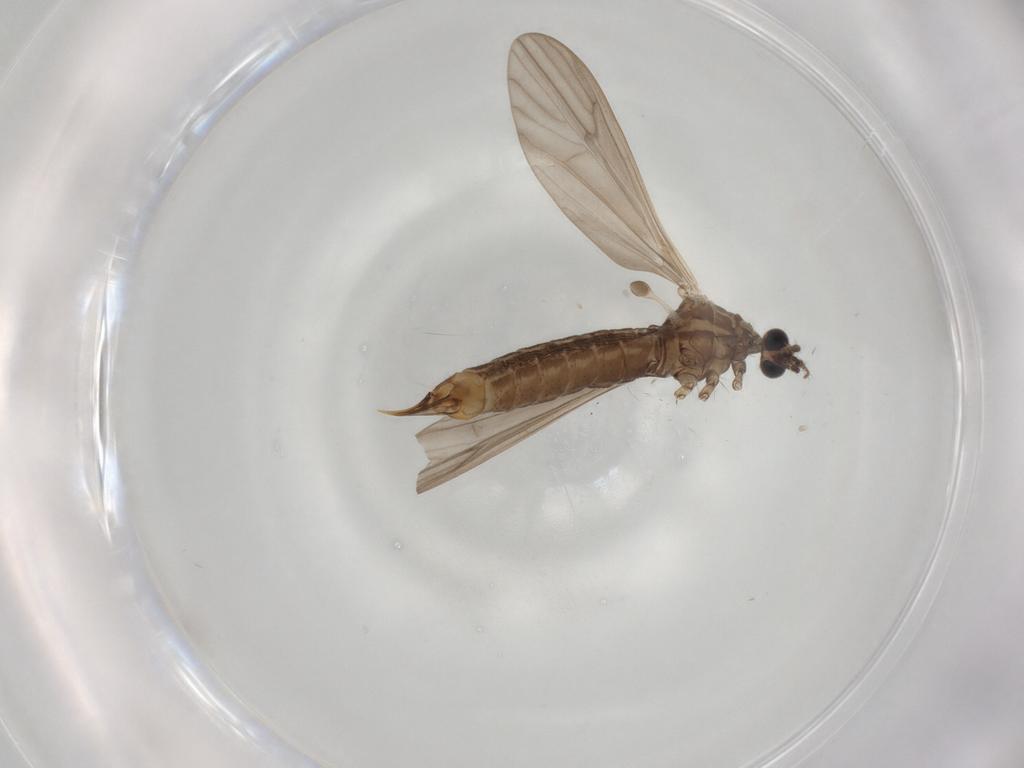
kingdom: Animalia
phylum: Arthropoda
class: Insecta
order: Diptera
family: Limoniidae
